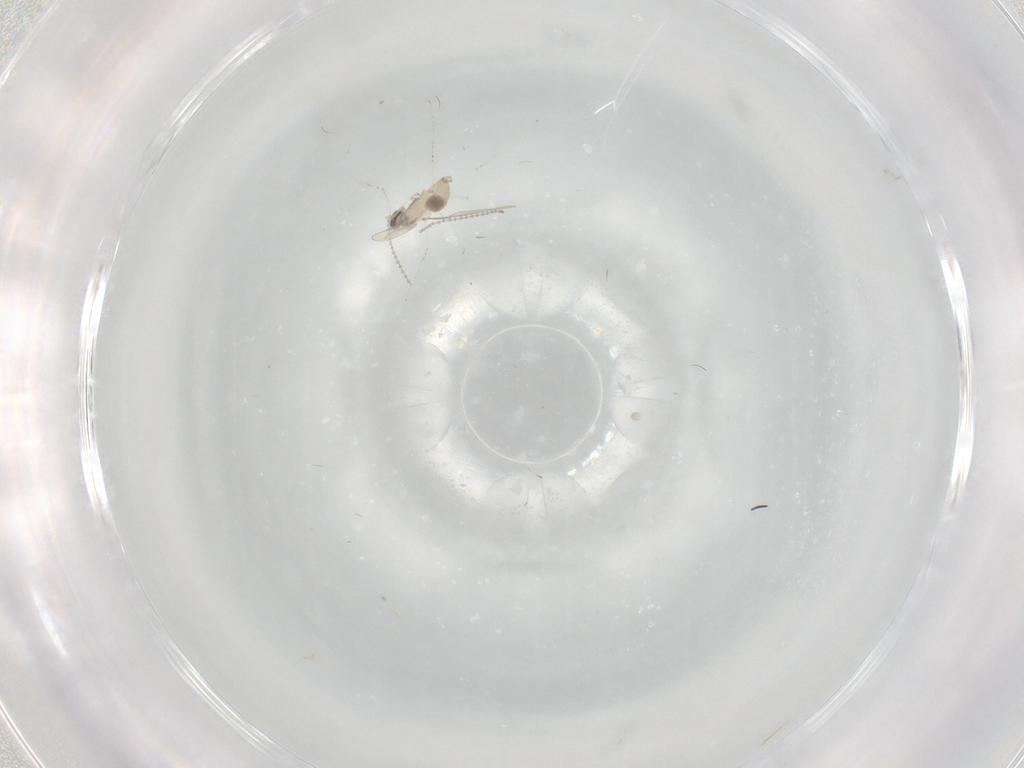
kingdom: Animalia
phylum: Arthropoda
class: Insecta
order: Diptera
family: Cecidomyiidae
